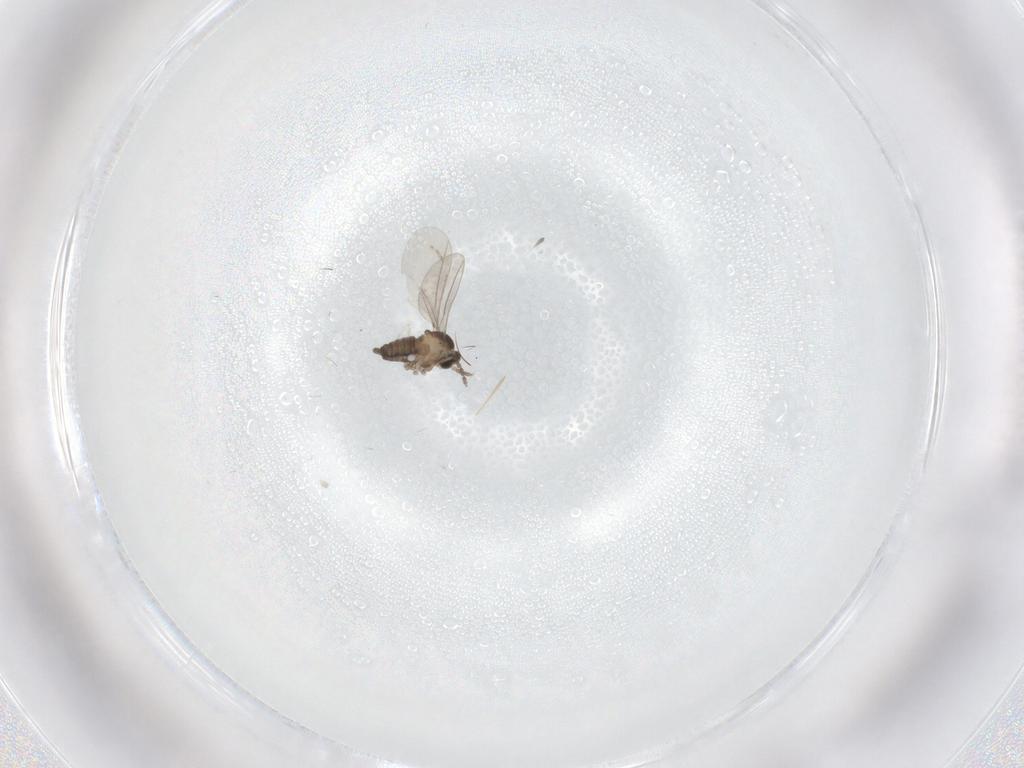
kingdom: Animalia
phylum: Arthropoda
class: Insecta
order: Diptera
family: Cecidomyiidae
